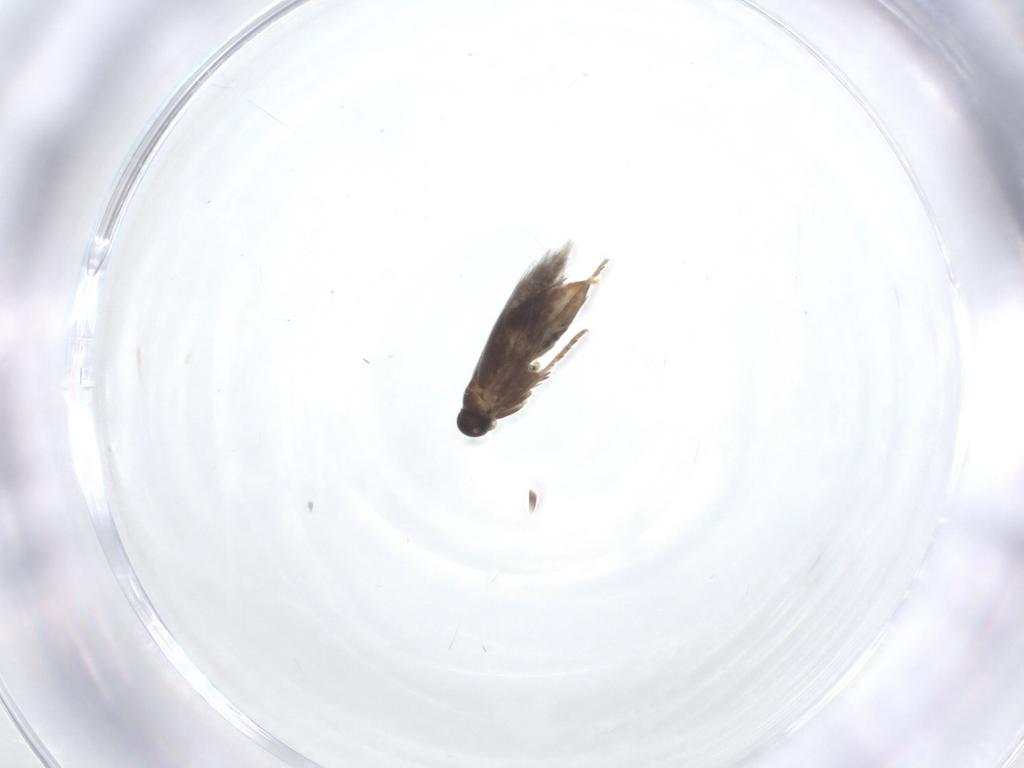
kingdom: Animalia
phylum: Arthropoda
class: Insecta
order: Lepidoptera
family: Heliozelidae
